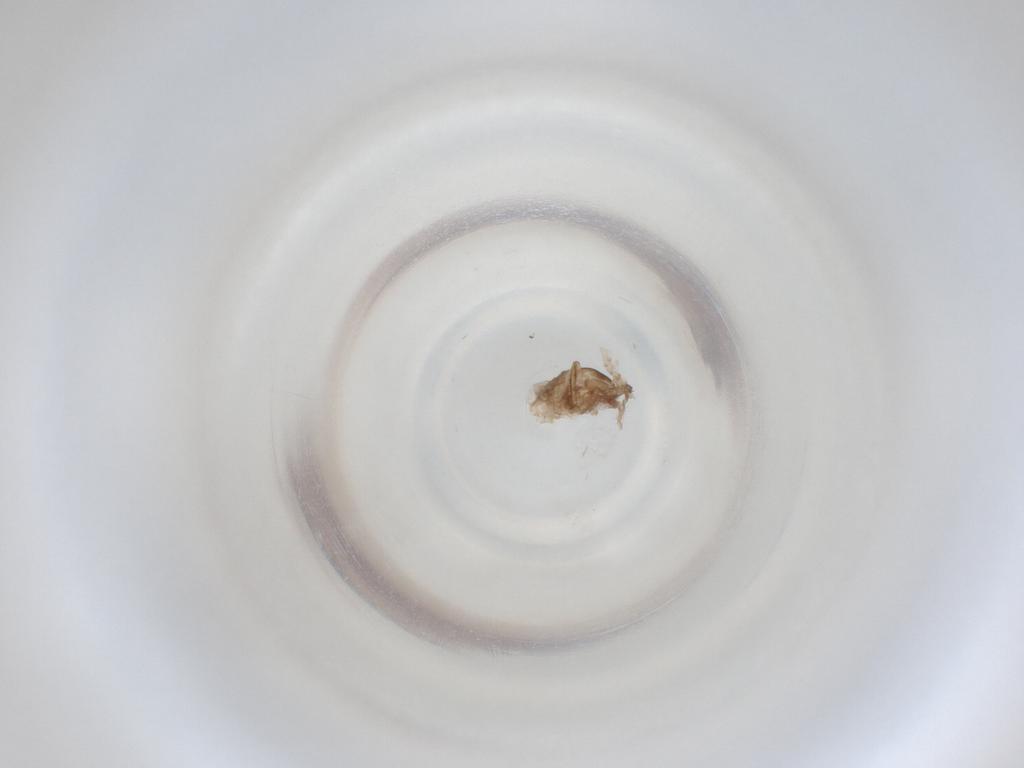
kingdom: Animalia
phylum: Arthropoda
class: Insecta
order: Diptera
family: Cecidomyiidae
